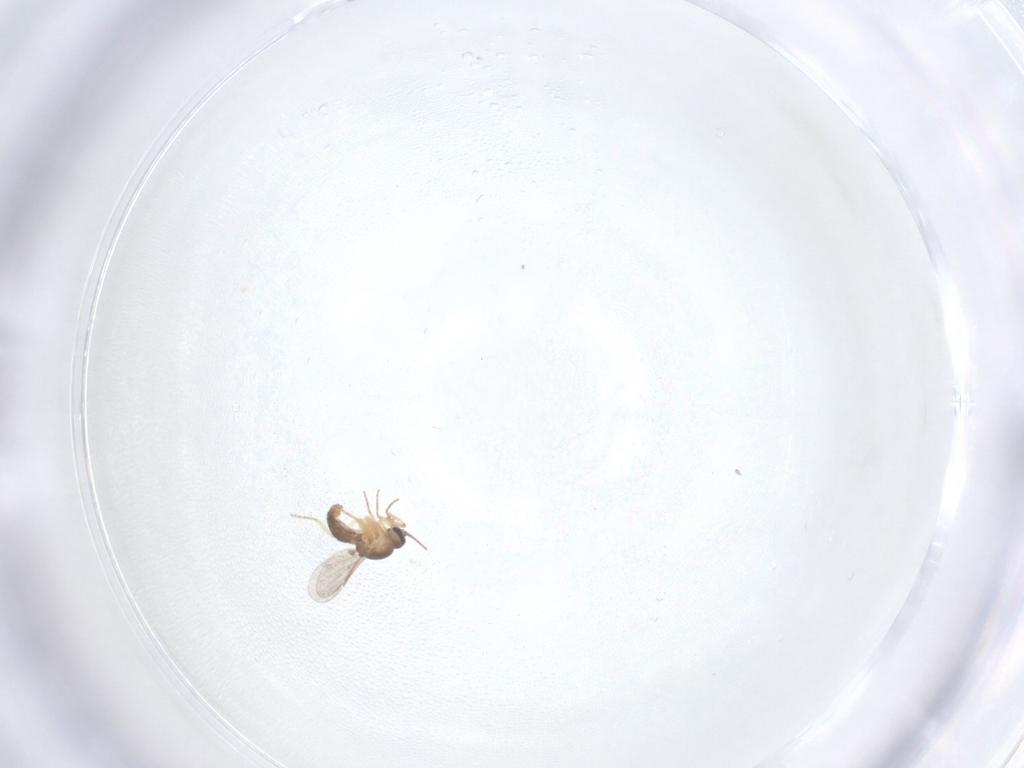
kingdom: Animalia
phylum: Arthropoda
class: Insecta
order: Diptera
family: Ceratopogonidae
